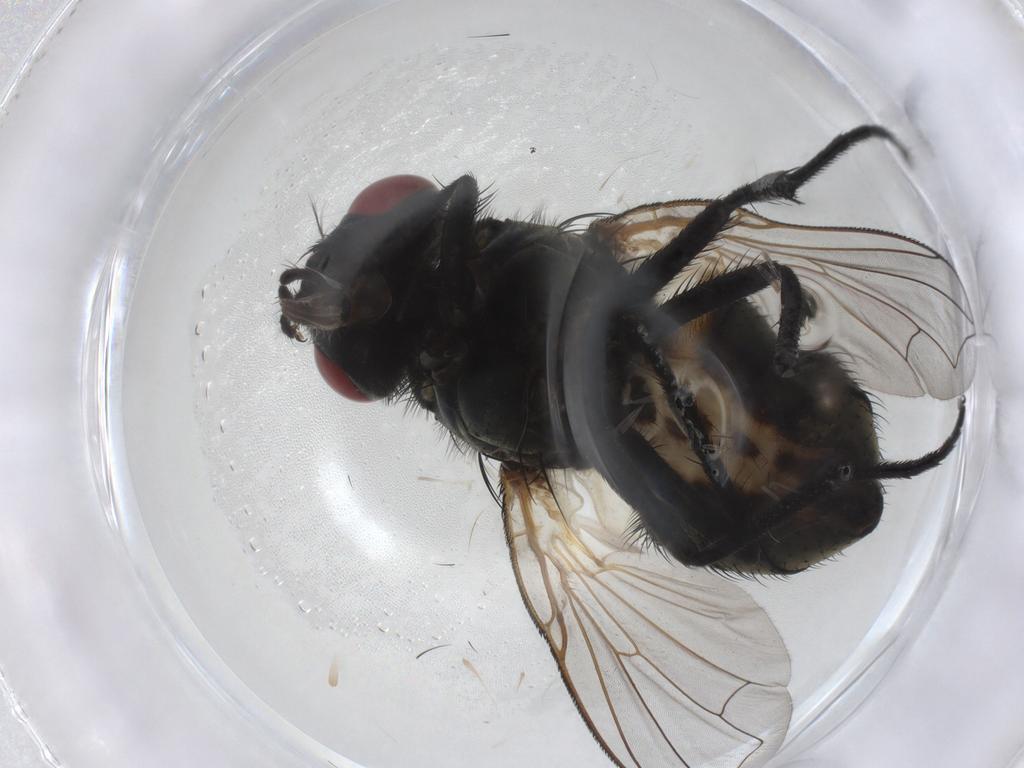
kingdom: Animalia
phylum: Arthropoda
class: Insecta
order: Diptera
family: Muscidae
